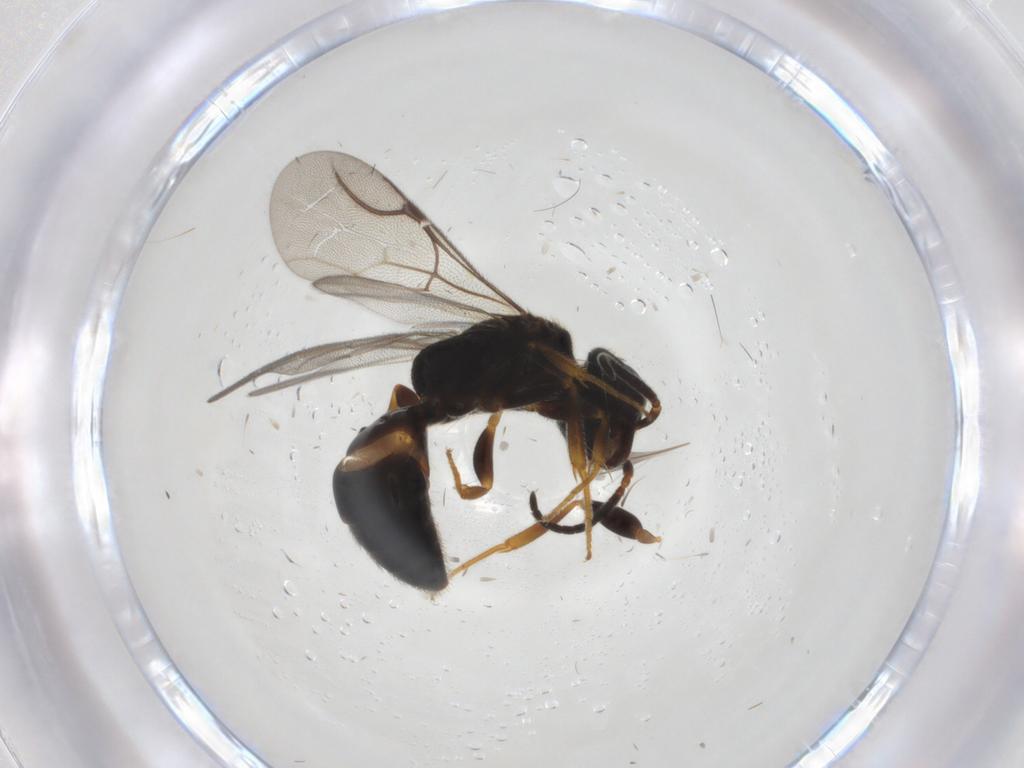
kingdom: Animalia
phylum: Arthropoda
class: Insecta
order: Hymenoptera
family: Bethylidae
